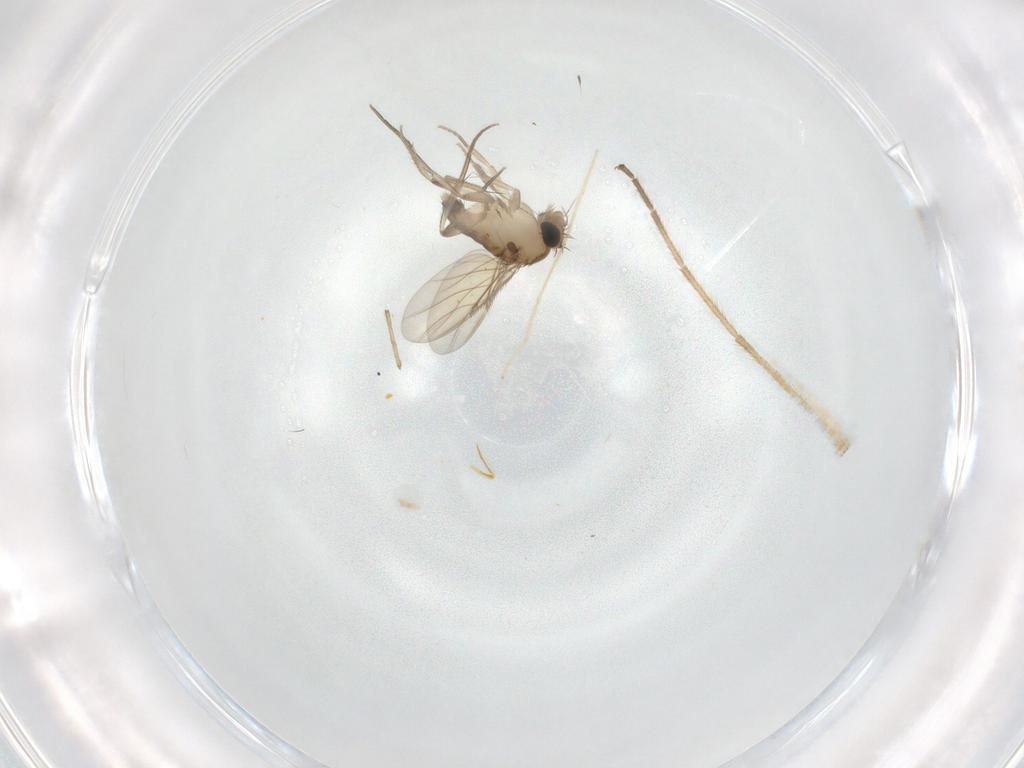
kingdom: Animalia
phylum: Arthropoda
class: Insecta
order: Diptera
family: Phoridae
